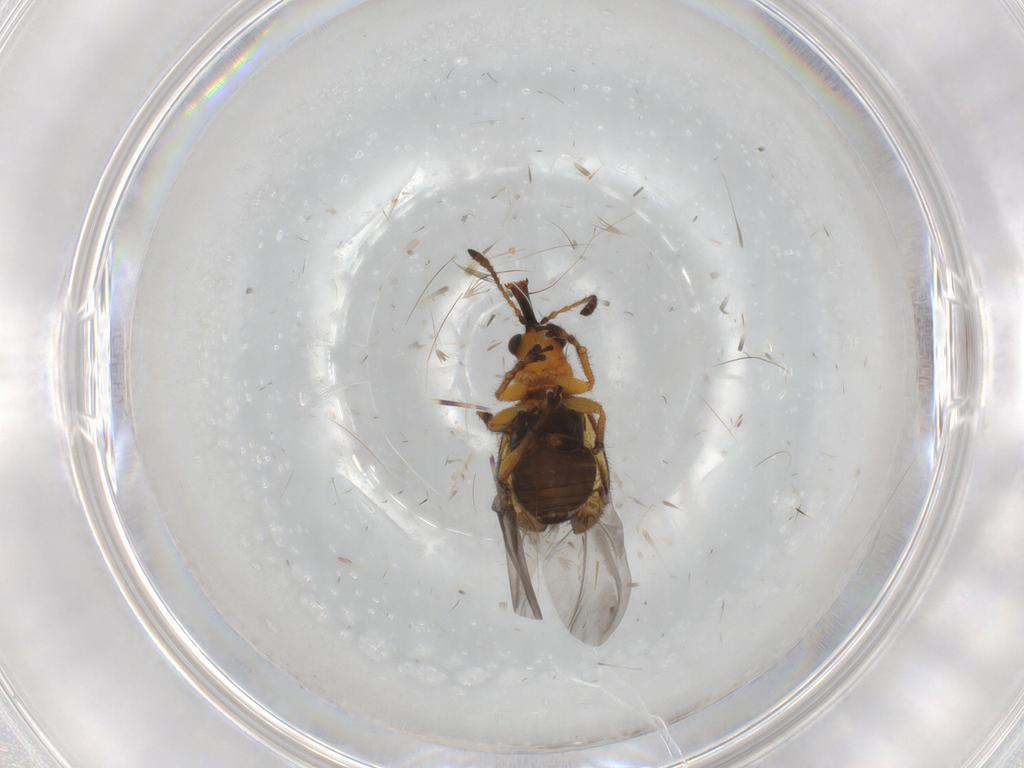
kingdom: Animalia
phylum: Arthropoda
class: Insecta
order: Coleoptera
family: Attelabidae
